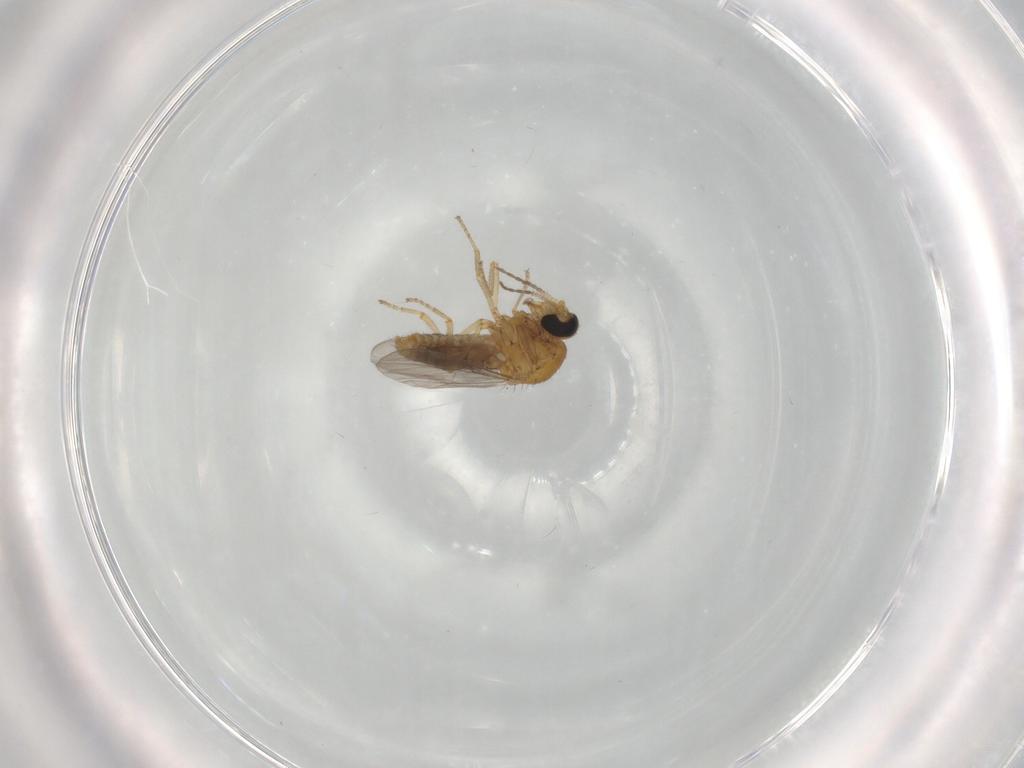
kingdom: Animalia
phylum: Arthropoda
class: Insecta
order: Diptera
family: Ceratopogonidae
